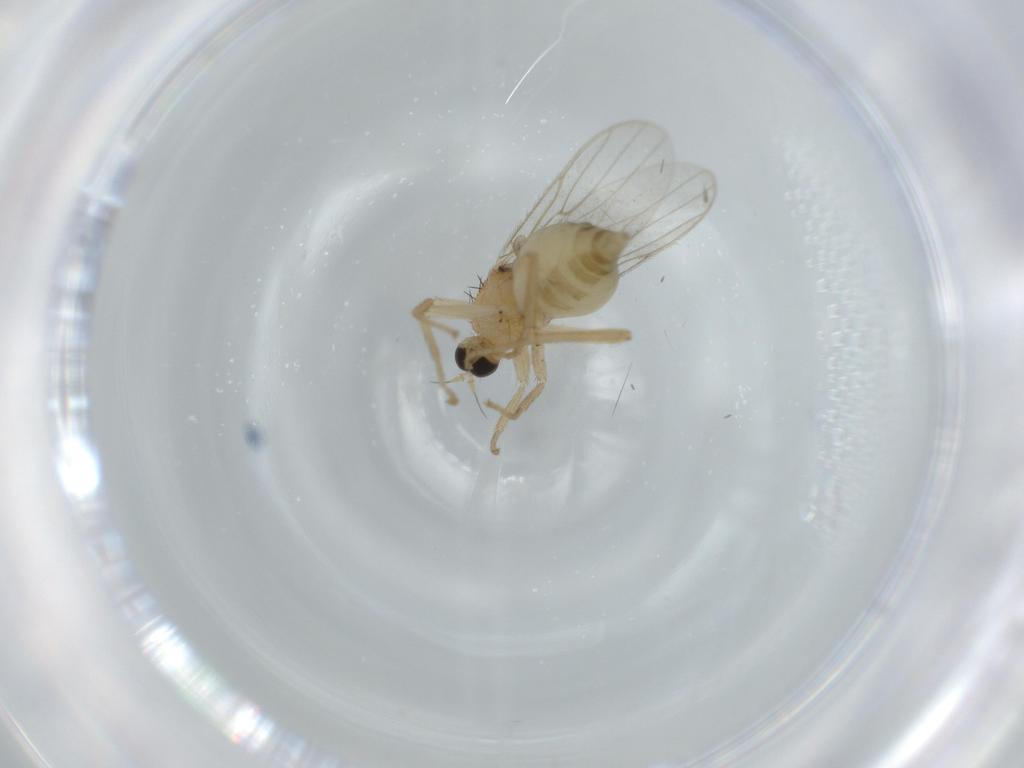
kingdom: Animalia
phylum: Arthropoda
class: Insecta
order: Diptera
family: Hybotidae
